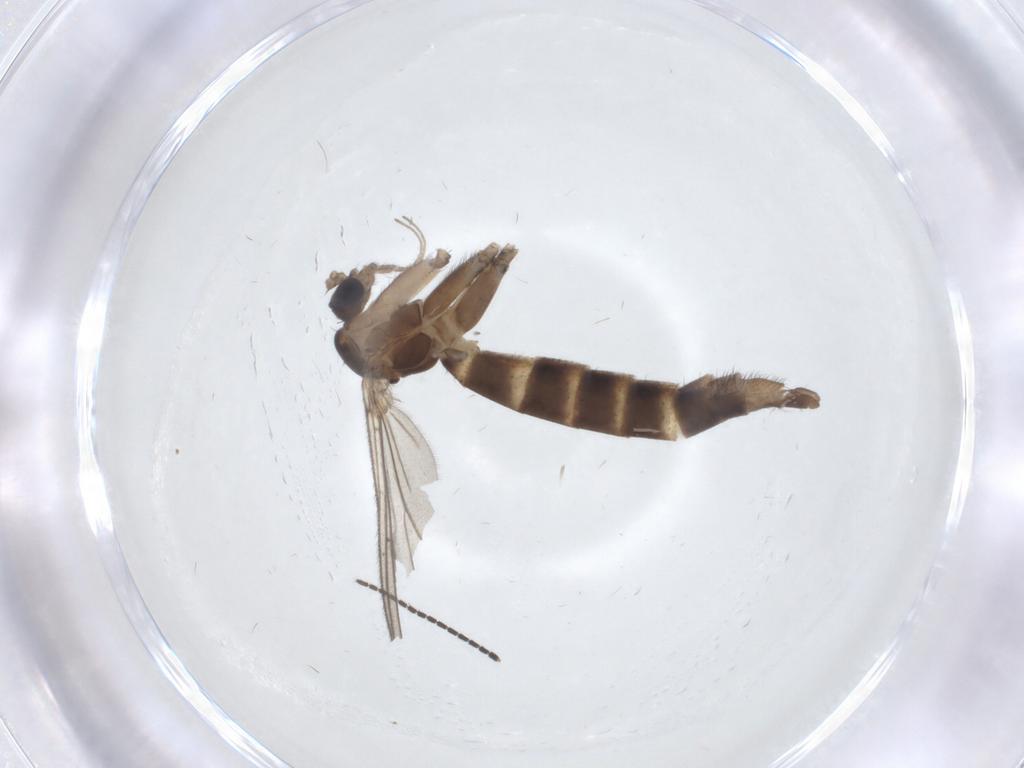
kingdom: Animalia
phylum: Arthropoda
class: Insecta
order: Diptera
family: Sciaridae
